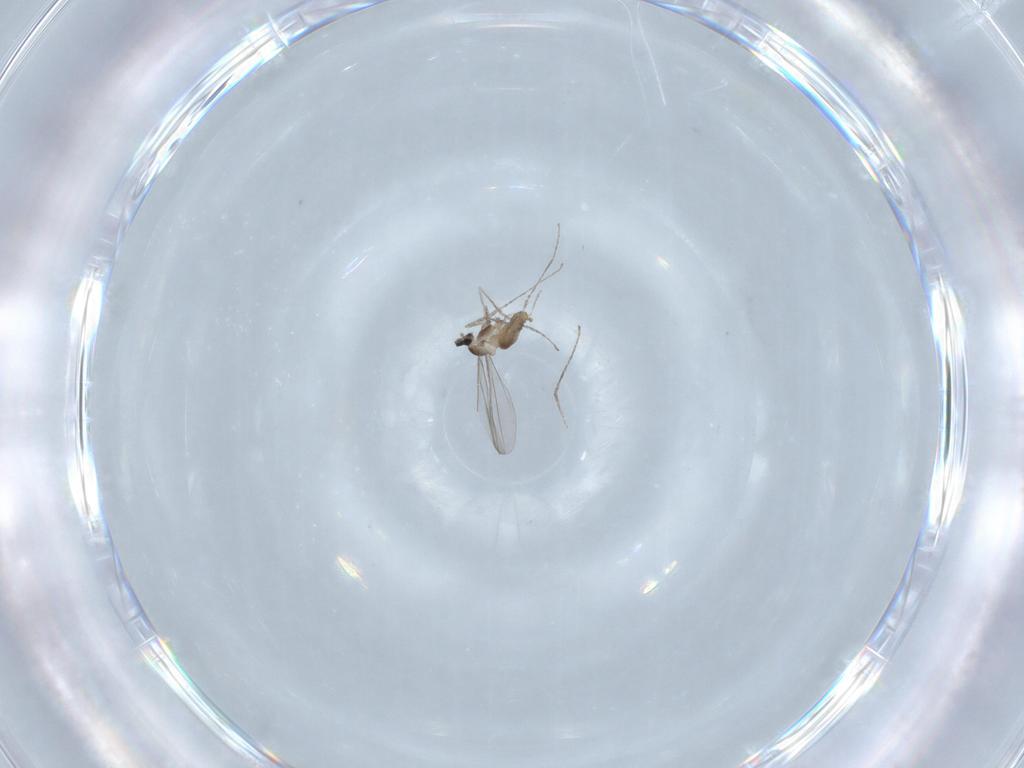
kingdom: Animalia
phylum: Arthropoda
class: Insecta
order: Diptera
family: Cecidomyiidae
